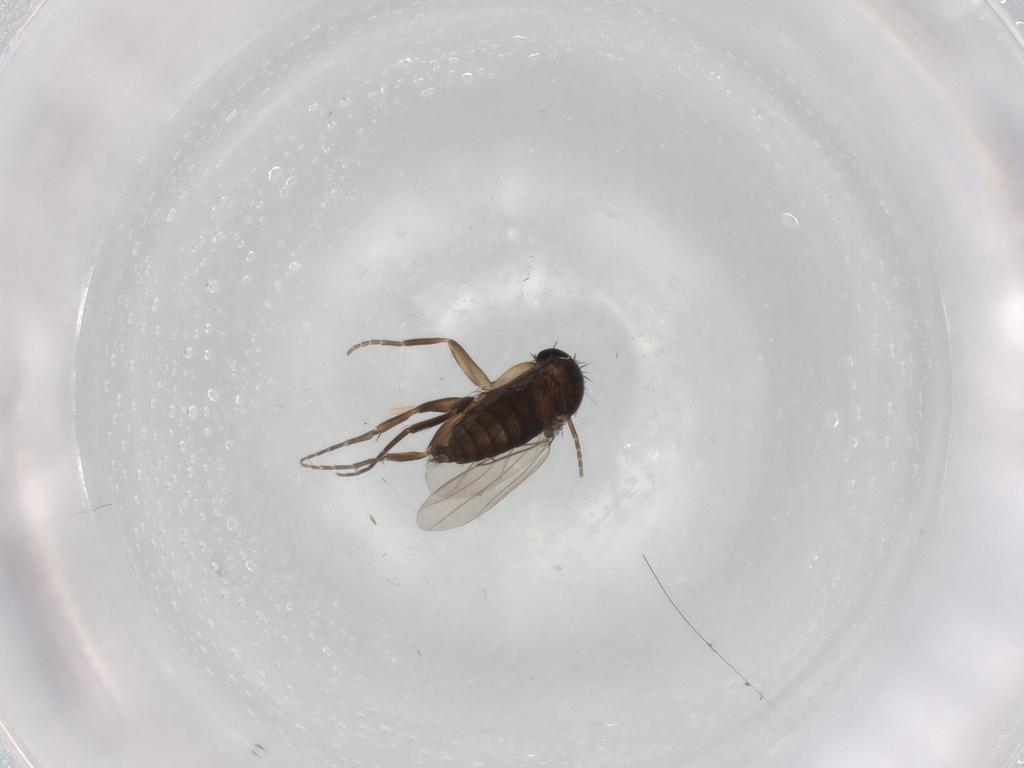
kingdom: Animalia
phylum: Arthropoda
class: Insecta
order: Diptera
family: Phoridae
